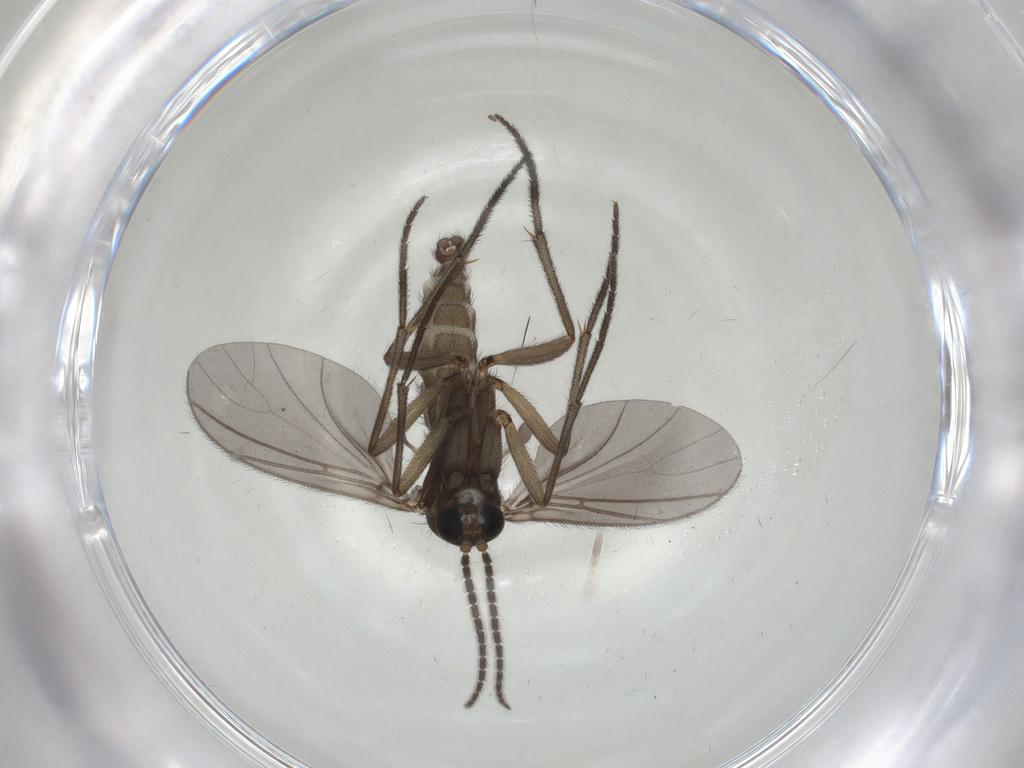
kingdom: Animalia
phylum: Arthropoda
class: Insecta
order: Diptera
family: Sciaridae
